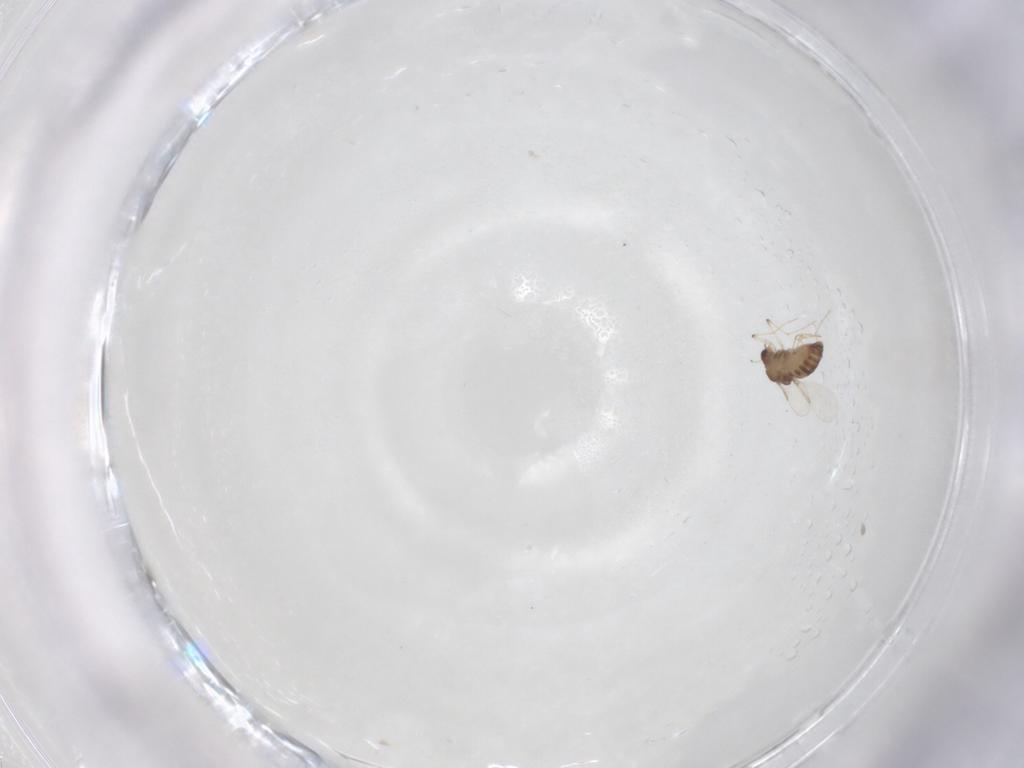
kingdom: Animalia
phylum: Arthropoda
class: Insecta
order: Diptera
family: Chironomidae
